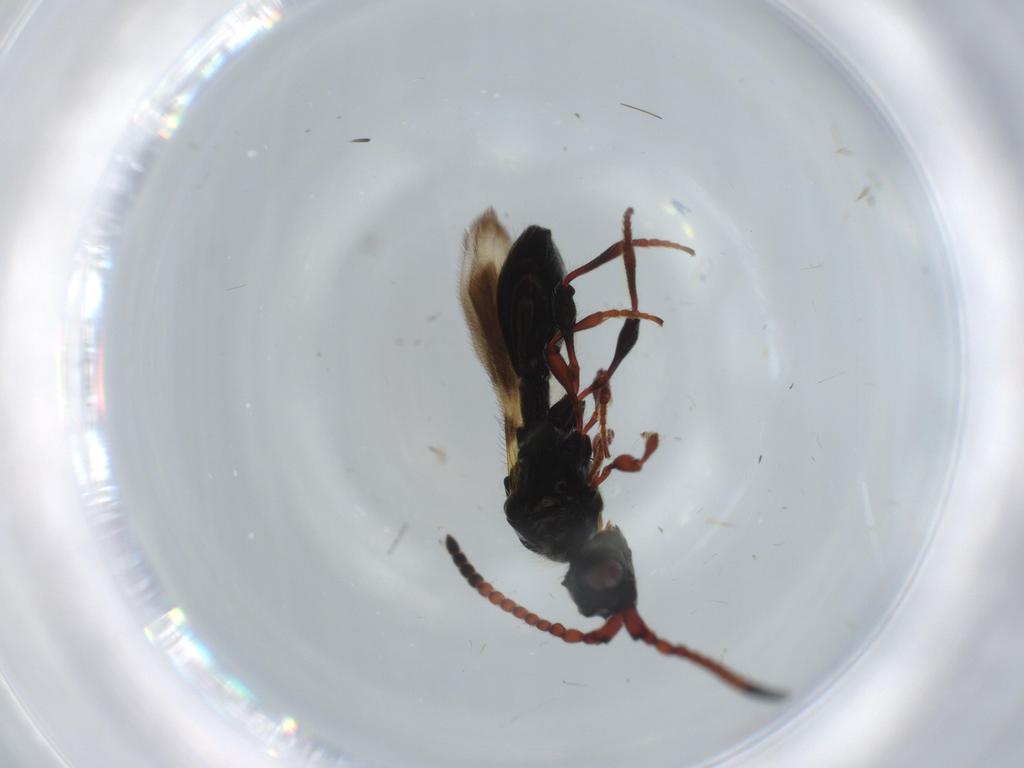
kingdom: Animalia
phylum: Arthropoda
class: Insecta
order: Hymenoptera
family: Diapriidae
